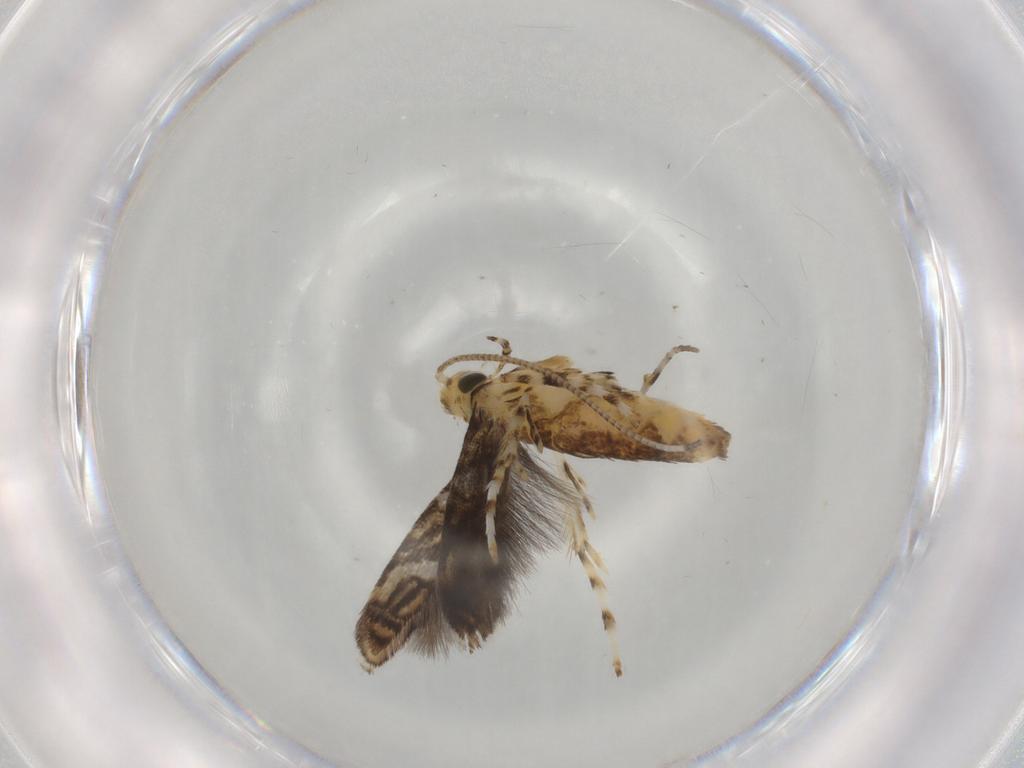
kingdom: Animalia
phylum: Arthropoda
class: Insecta
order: Lepidoptera
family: Gracillariidae
